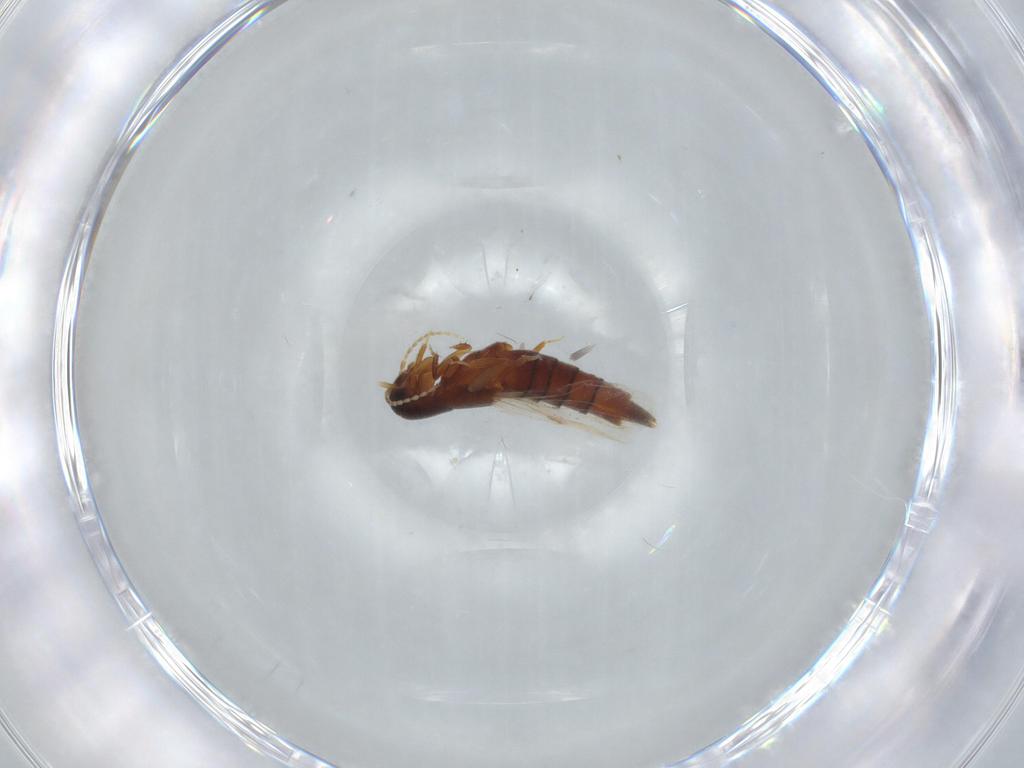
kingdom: Animalia
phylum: Arthropoda
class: Insecta
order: Coleoptera
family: Staphylinidae
